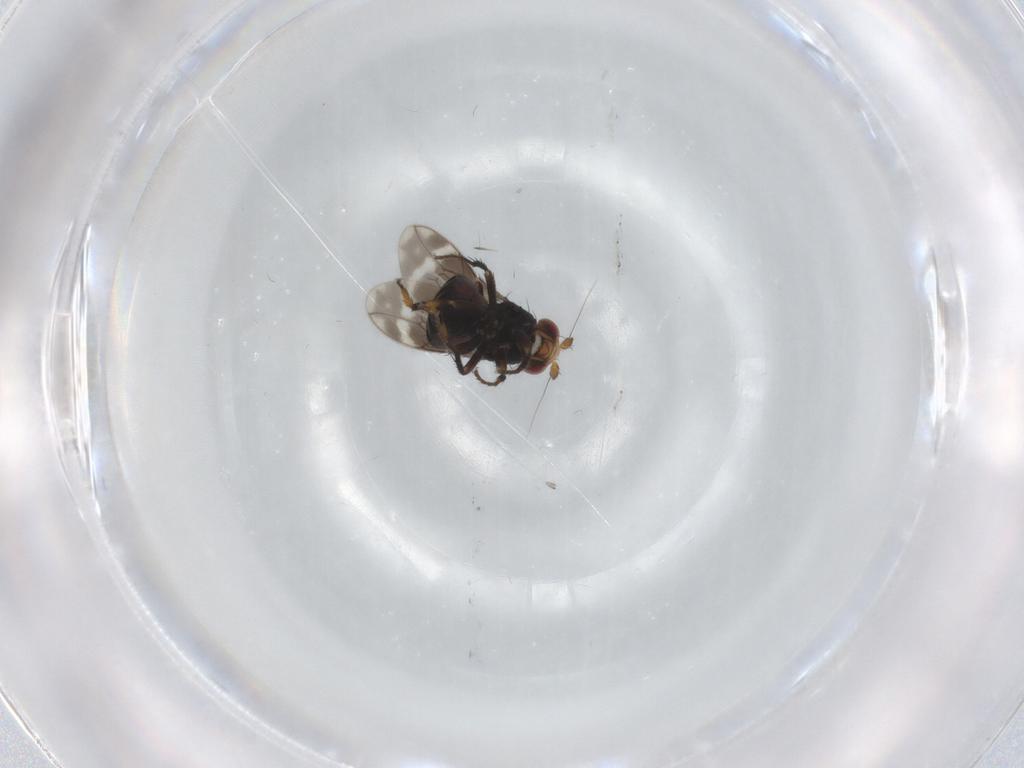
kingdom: Animalia
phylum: Arthropoda
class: Insecta
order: Diptera
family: Sphaeroceridae
